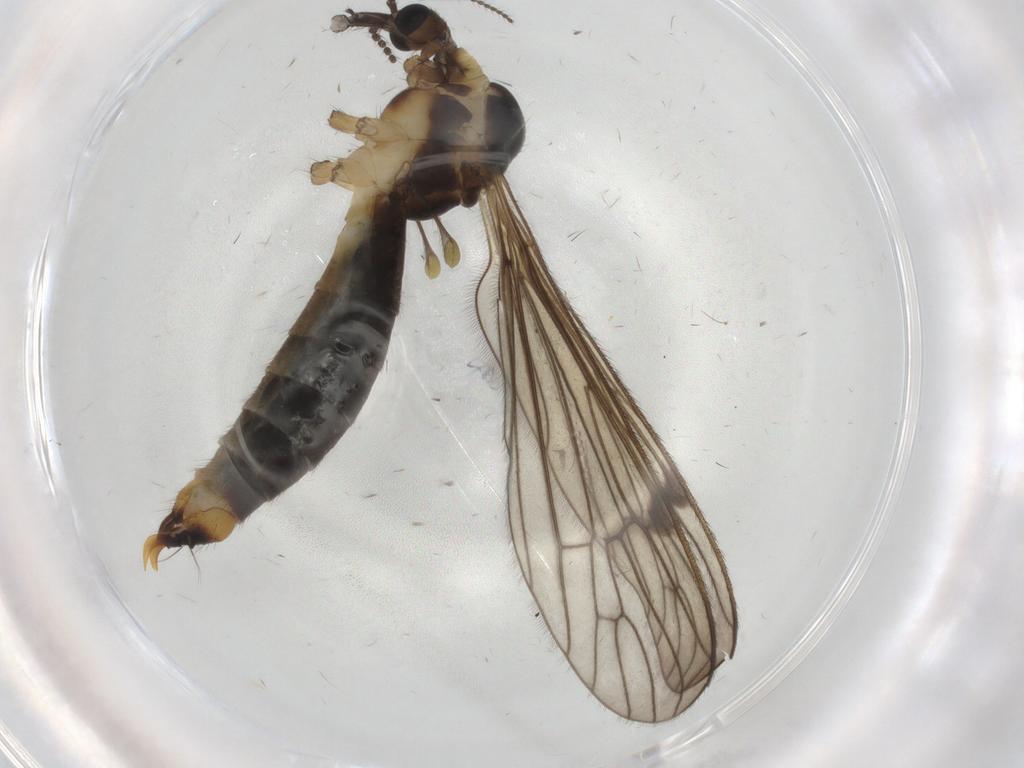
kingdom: Animalia
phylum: Arthropoda
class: Insecta
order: Diptera
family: Limoniidae
